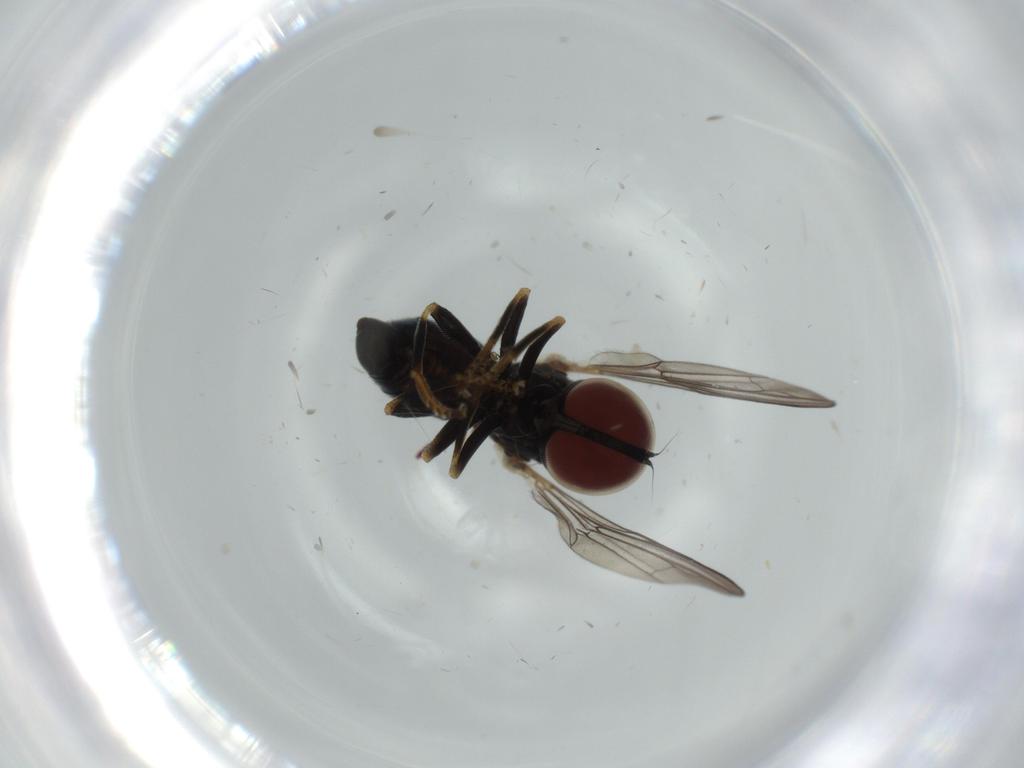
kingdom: Animalia
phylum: Arthropoda
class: Insecta
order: Diptera
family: Pipunculidae
